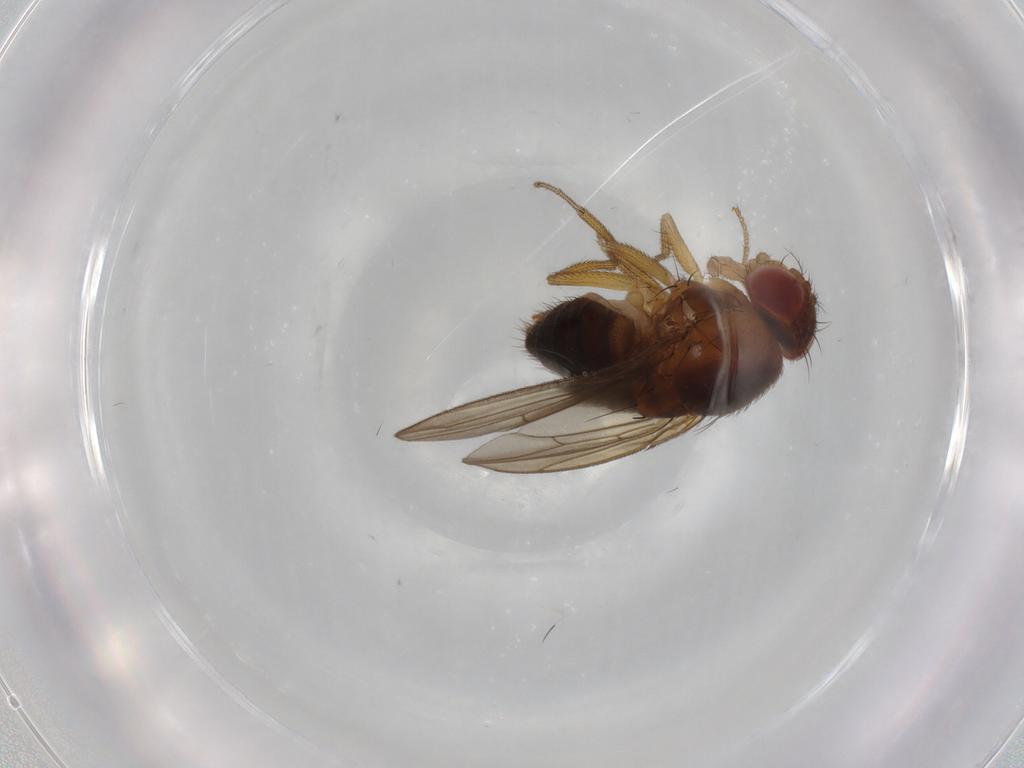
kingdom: Animalia
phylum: Arthropoda
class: Insecta
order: Diptera
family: Drosophilidae
